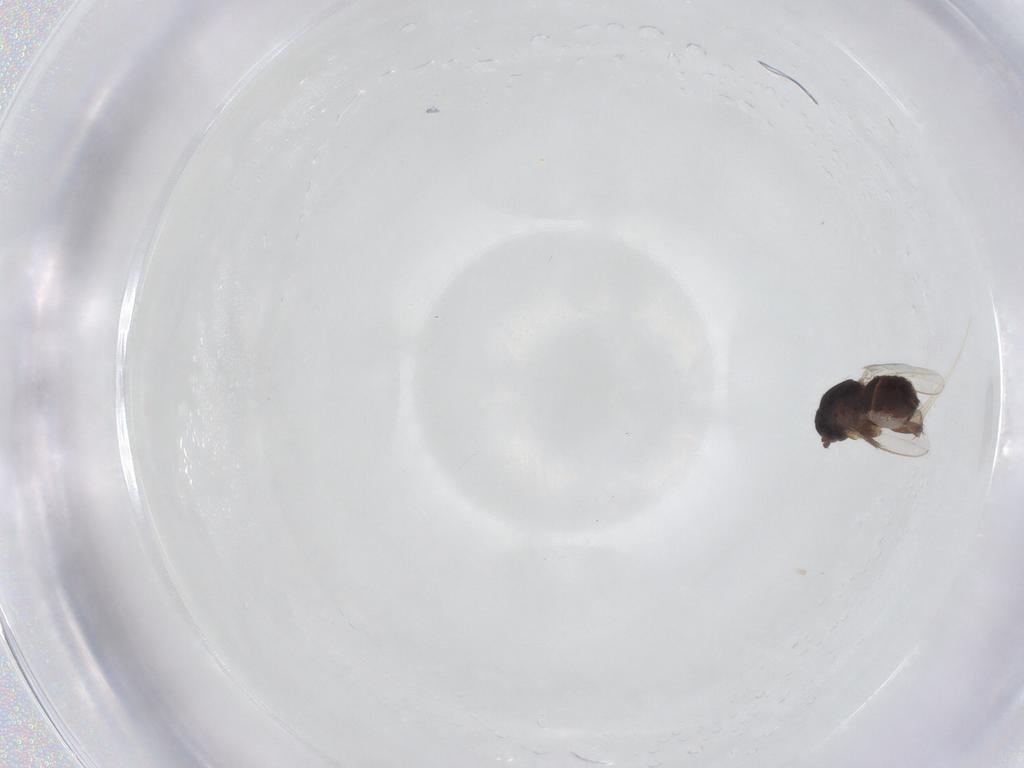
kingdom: Animalia
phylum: Arthropoda
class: Insecta
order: Diptera
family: Sphaeroceridae
